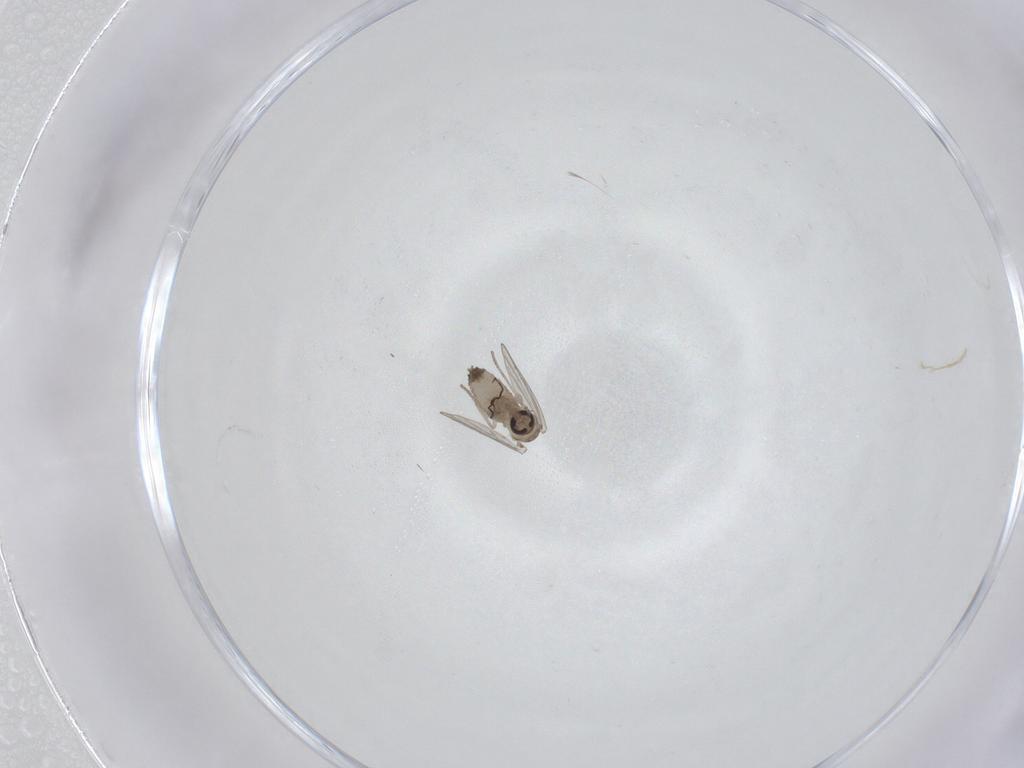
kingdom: Animalia
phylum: Arthropoda
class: Insecta
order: Diptera
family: Psychodidae
